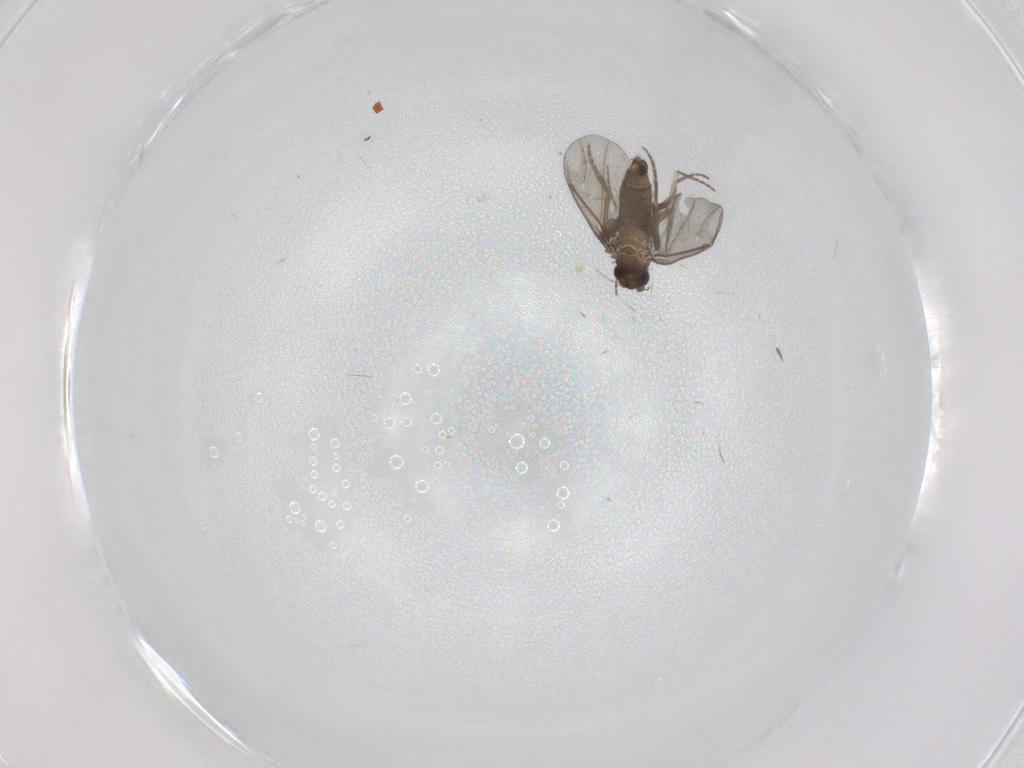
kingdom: Animalia
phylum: Arthropoda
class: Insecta
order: Diptera
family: Phoridae
